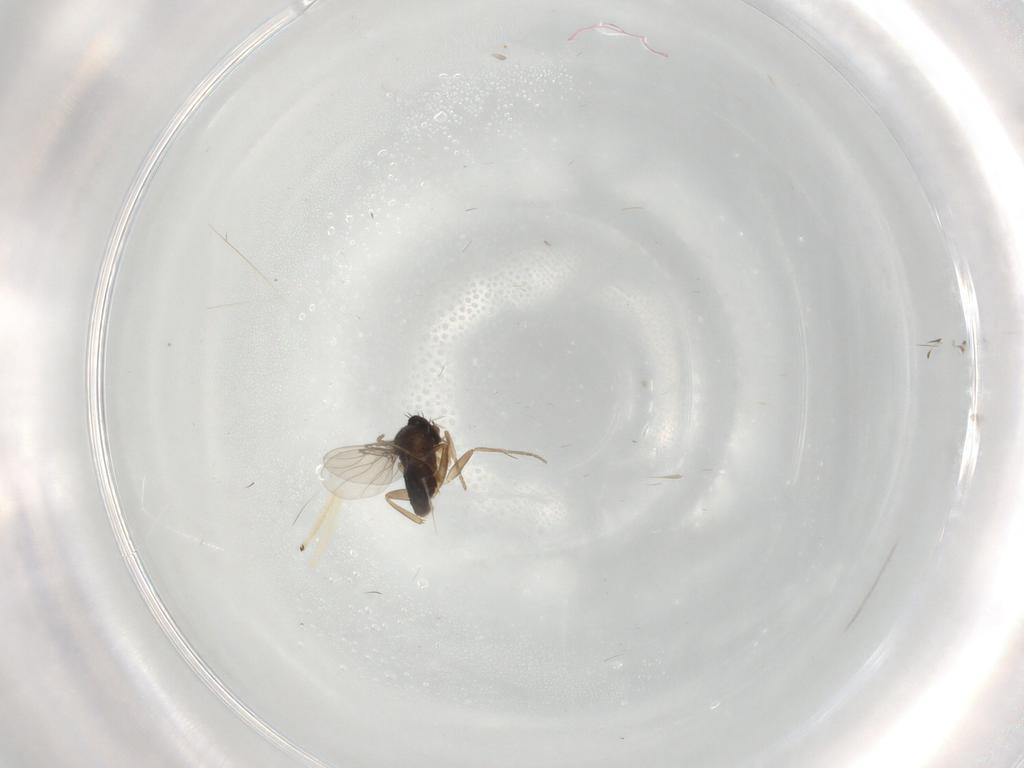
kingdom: Animalia
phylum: Arthropoda
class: Insecta
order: Diptera
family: Phoridae
